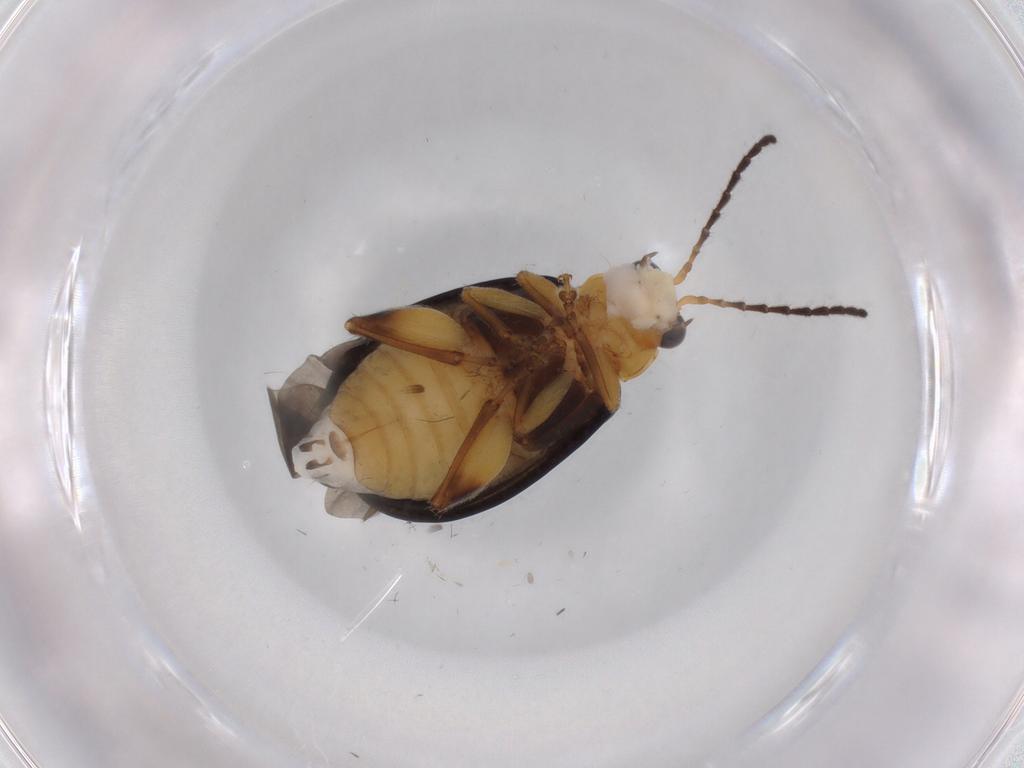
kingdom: Animalia
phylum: Arthropoda
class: Insecta
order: Coleoptera
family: Chrysomelidae
